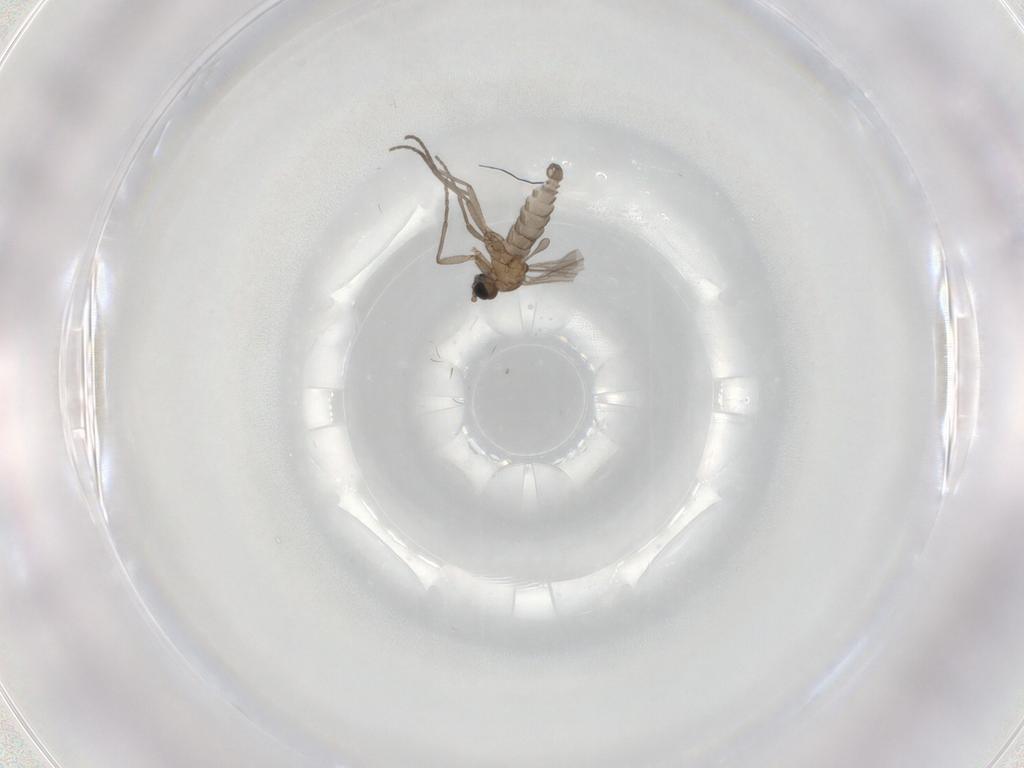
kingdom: Animalia
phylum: Arthropoda
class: Insecta
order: Diptera
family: Sciaridae
